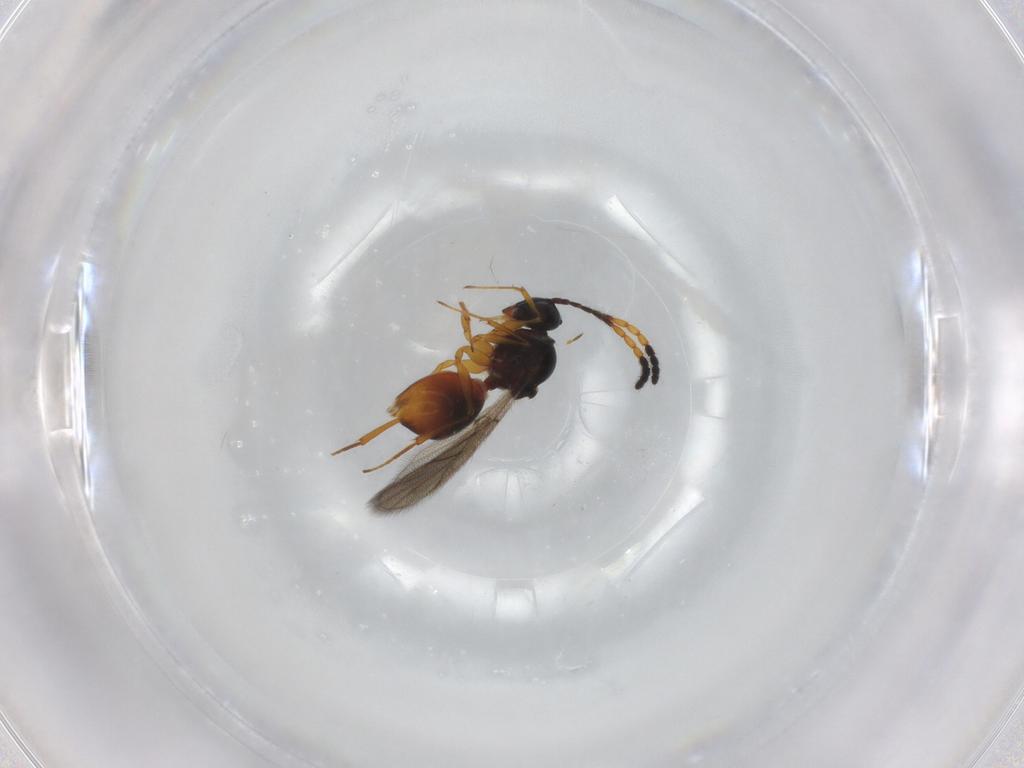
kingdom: Animalia
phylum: Arthropoda
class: Insecta
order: Hymenoptera
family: Figitidae
